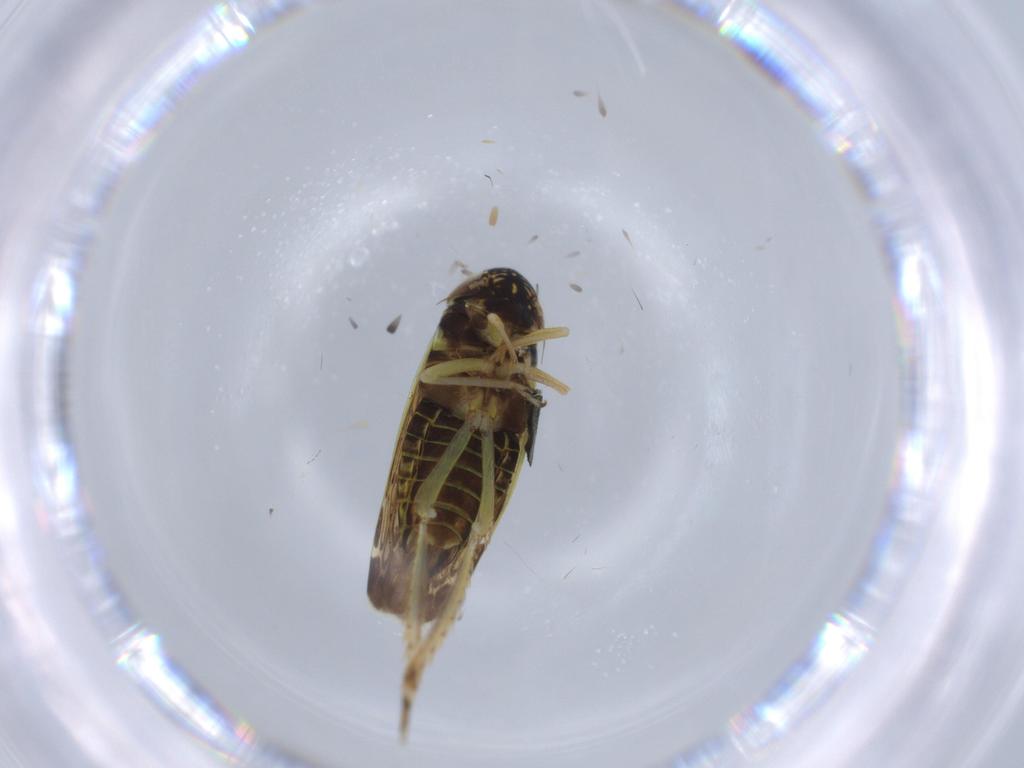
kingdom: Animalia
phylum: Arthropoda
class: Insecta
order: Hemiptera
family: Cicadellidae
